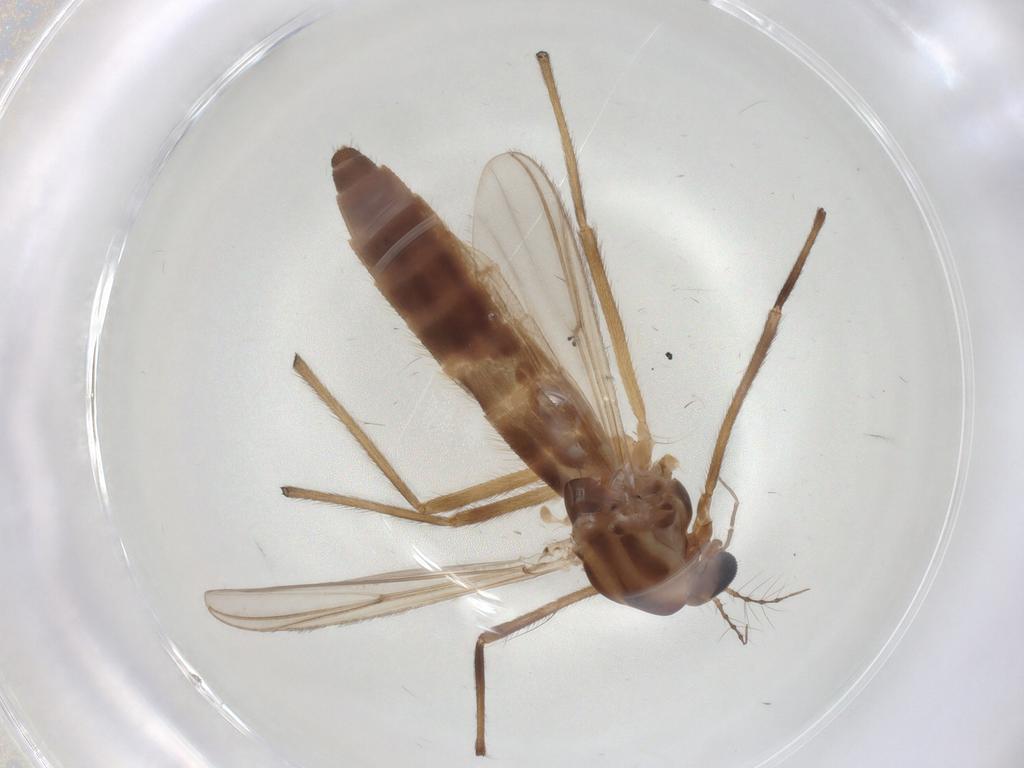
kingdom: Animalia
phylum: Arthropoda
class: Insecta
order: Diptera
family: Chironomidae
